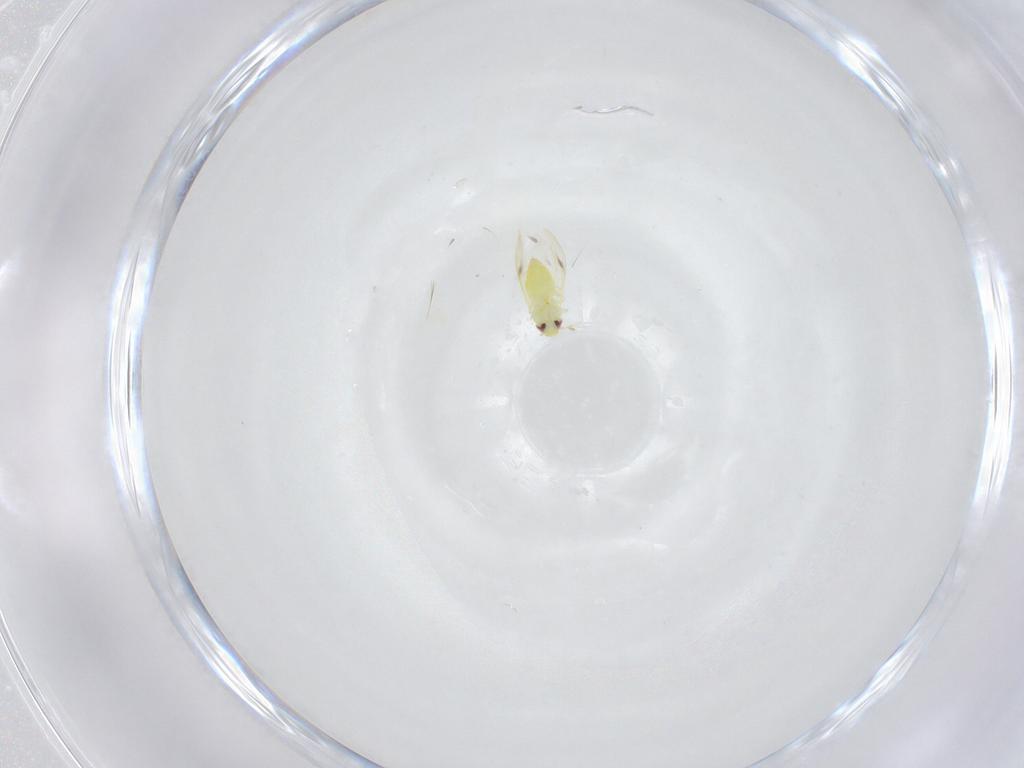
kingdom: Animalia
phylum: Arthropoda
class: Insecta
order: Hemiptera
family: Aleyrodidae
